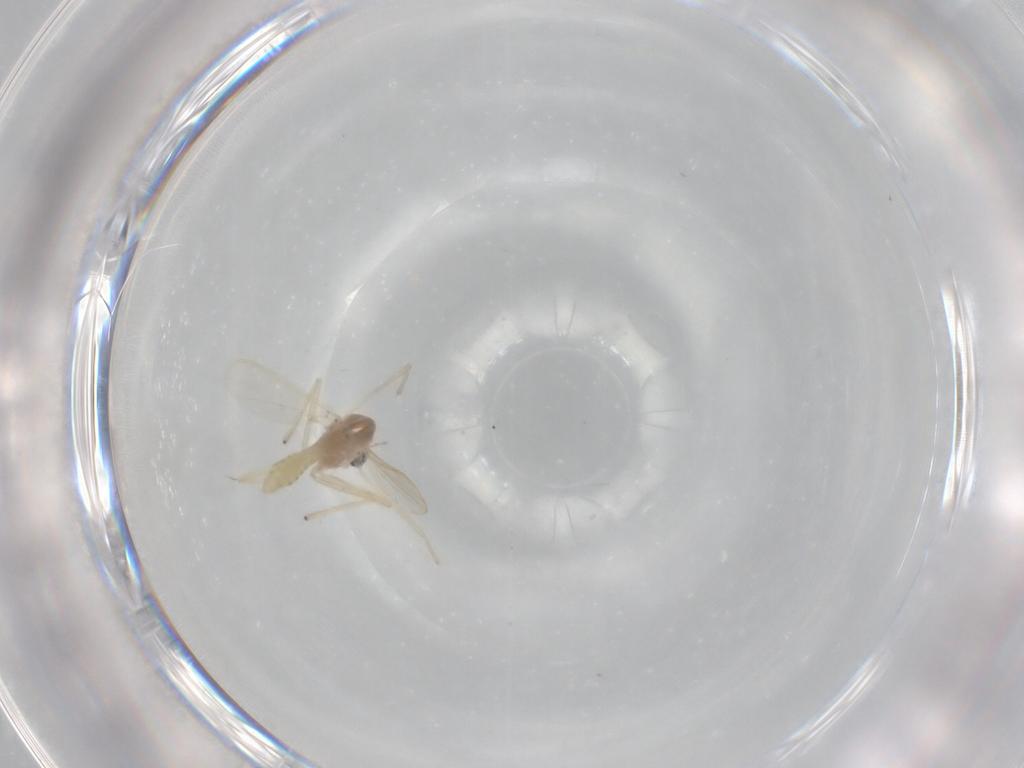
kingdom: Animalia
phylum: Arthropoda
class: Insecta
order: Diptera
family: Chironomidae
